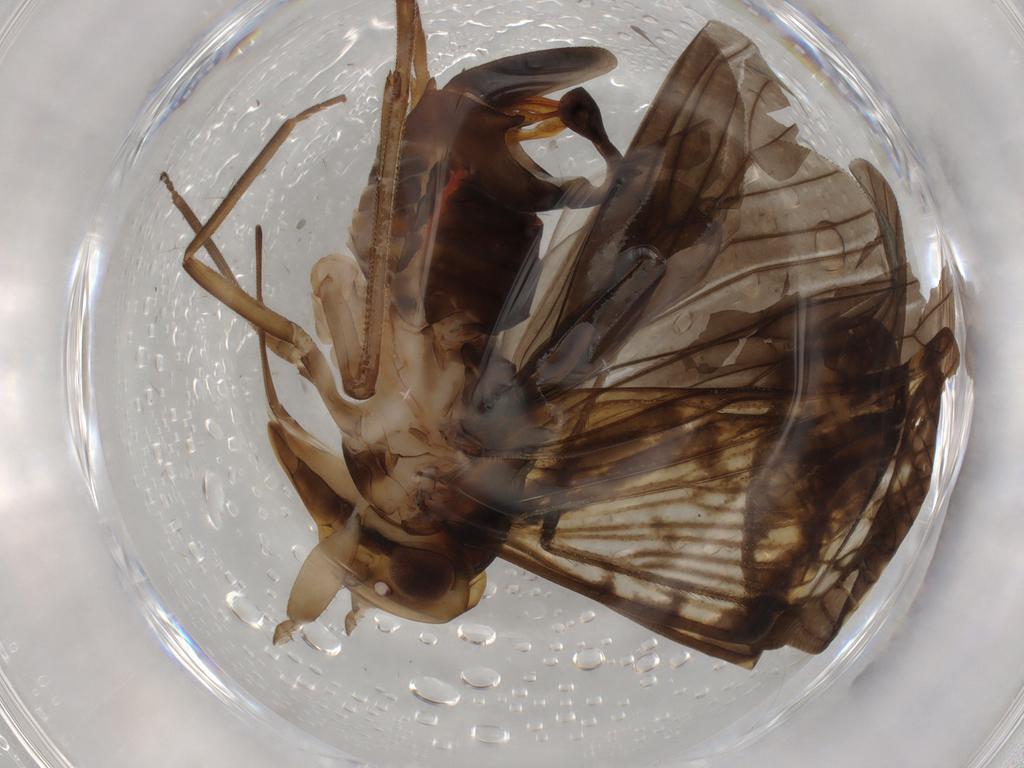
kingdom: Animalia
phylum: Arthropoda
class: Insecta
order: Hemiptera
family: Cixiidae
